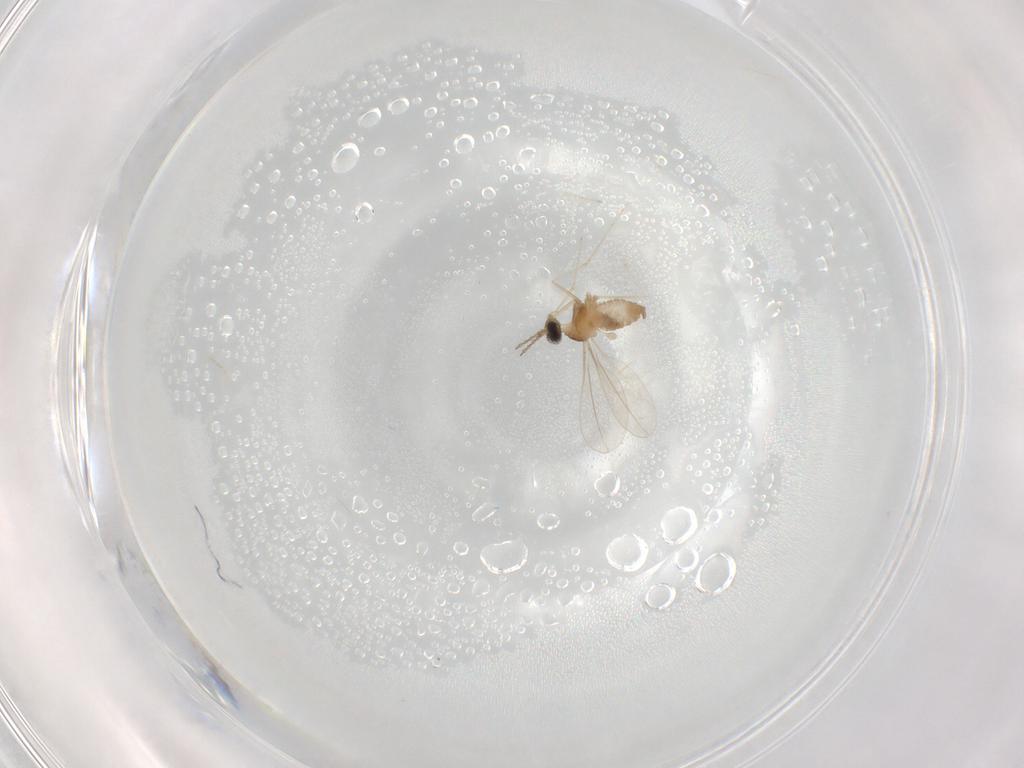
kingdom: Animalia
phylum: Arthropoda
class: Insecta
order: Diptera
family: Cecidomyiidae
